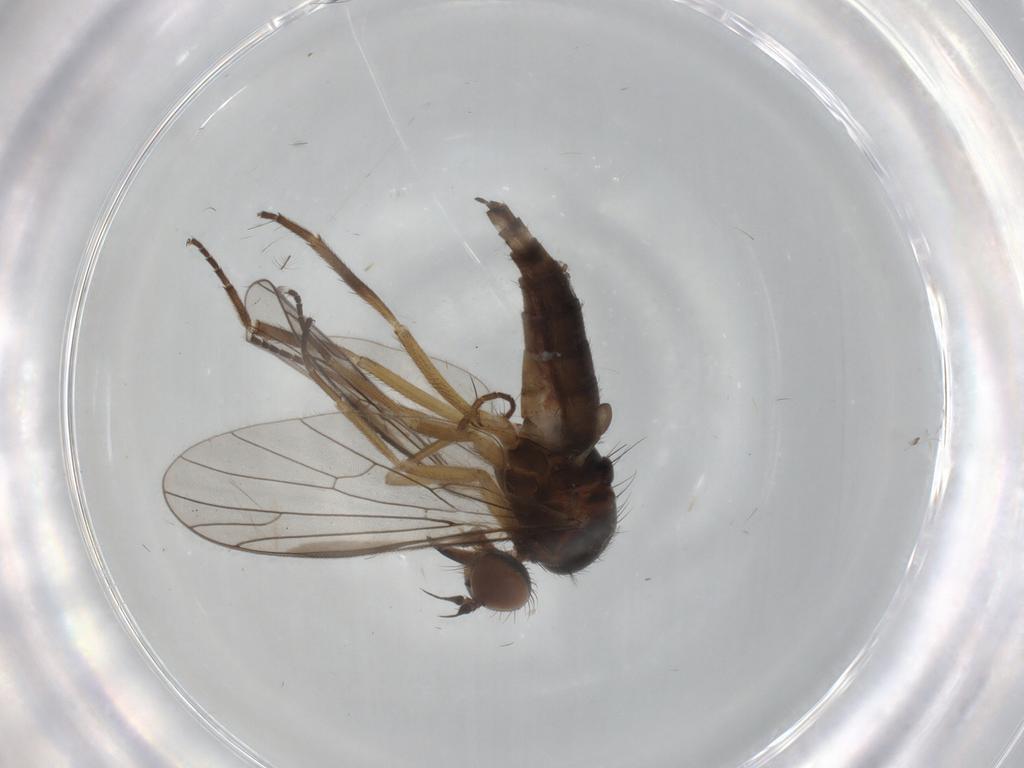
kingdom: Animalia
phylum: Arthropoda
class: Insecta
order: Diptera
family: Empididae
